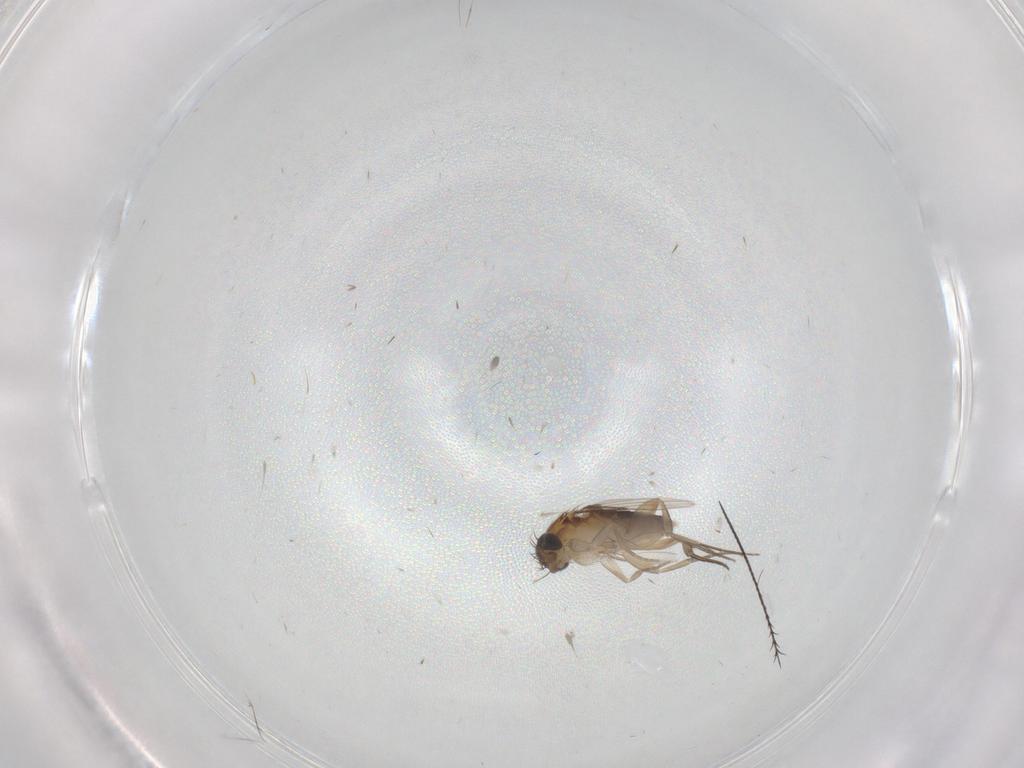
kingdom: Animalia
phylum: Arthropoda
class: Insecta
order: Diptera
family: Phoridae
